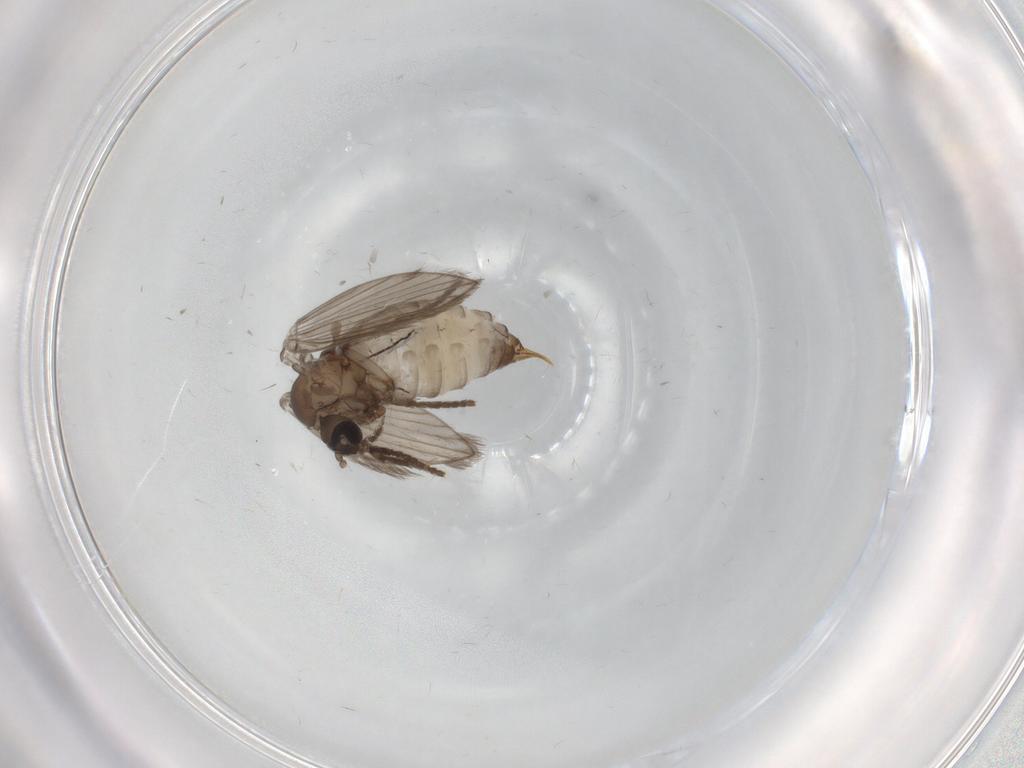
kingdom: Animalia
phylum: Arthropoda
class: Insecta
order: Diptera
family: Psychodidae
